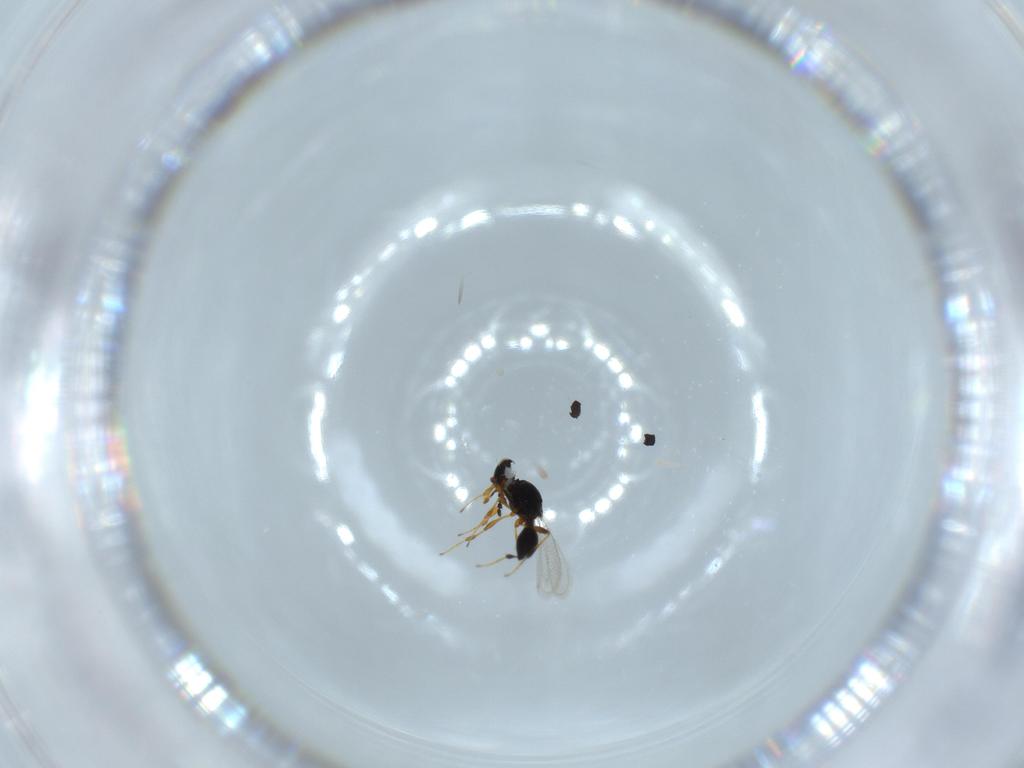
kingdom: Animalia
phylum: Arthropoda
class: Insecta
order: Hymenoptera
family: Platygastridae
